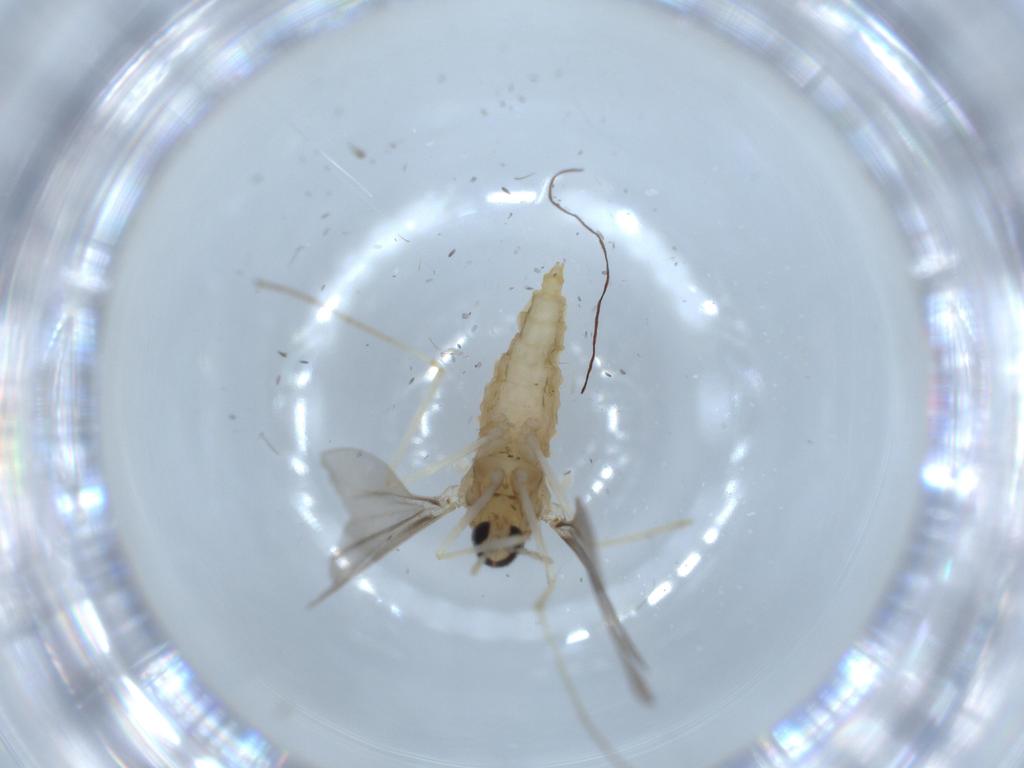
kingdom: Animalia
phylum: Arthropoda
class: Insecta
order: Diptera
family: Cecidomyiidae
